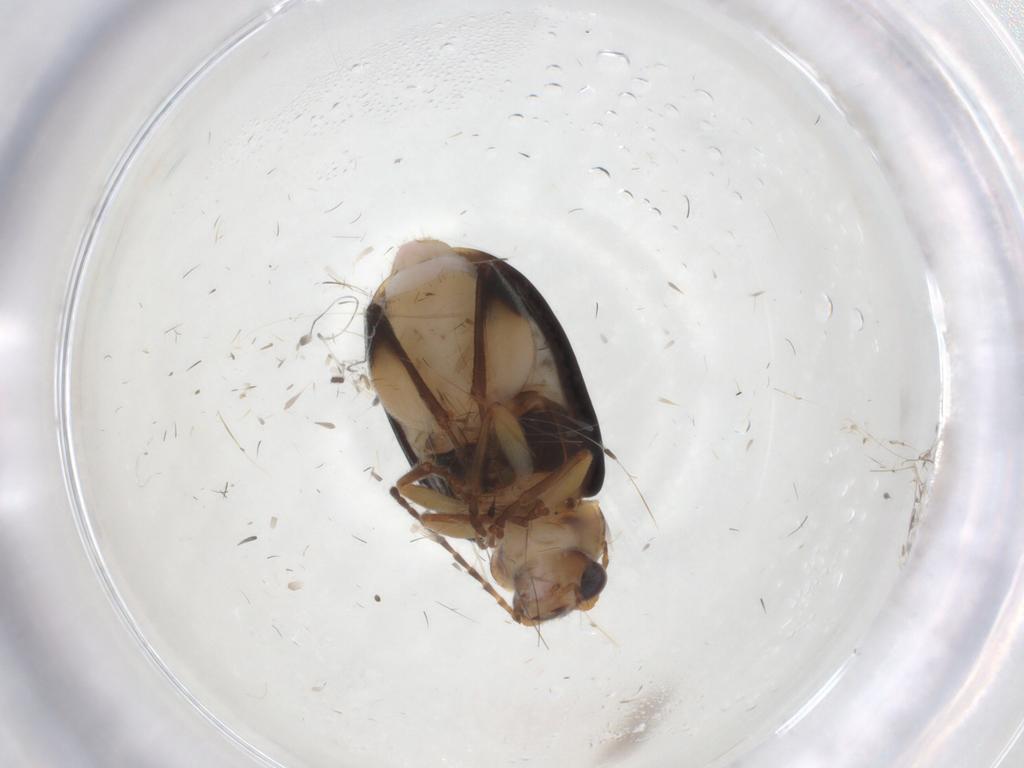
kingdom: Animalia
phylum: Arthropoda
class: Insecta
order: Coleoptera
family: Chrysomelidae
